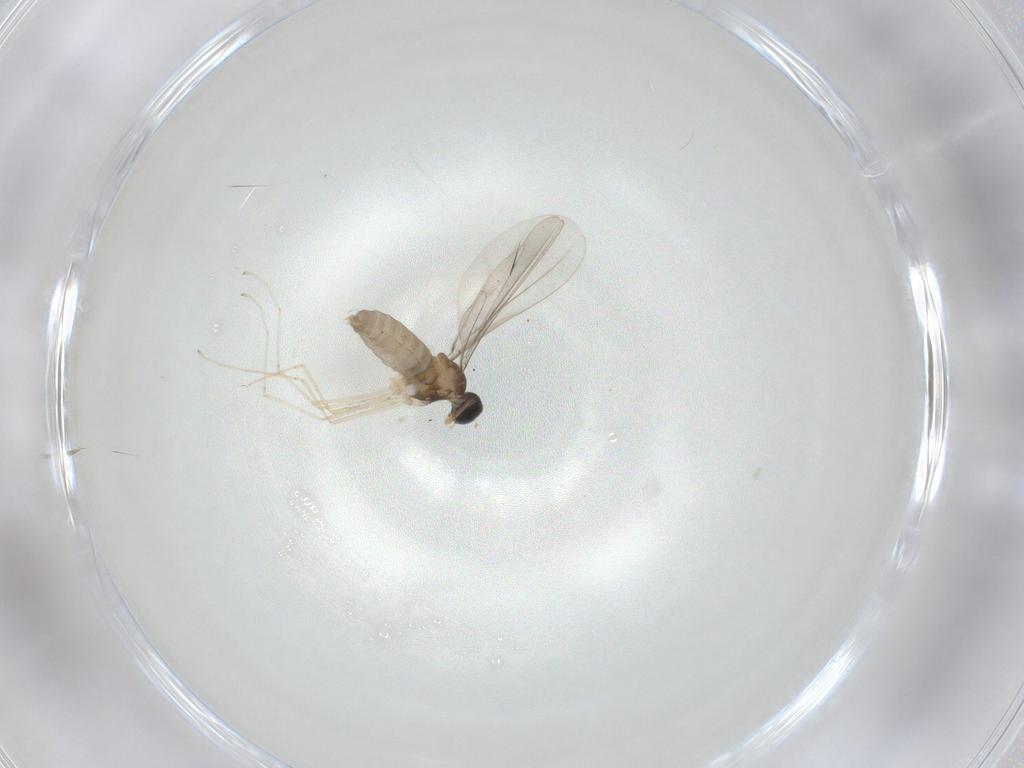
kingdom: Animalia
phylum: Arthropoda
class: Insecta
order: Diptera
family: Cecidomyiidae
